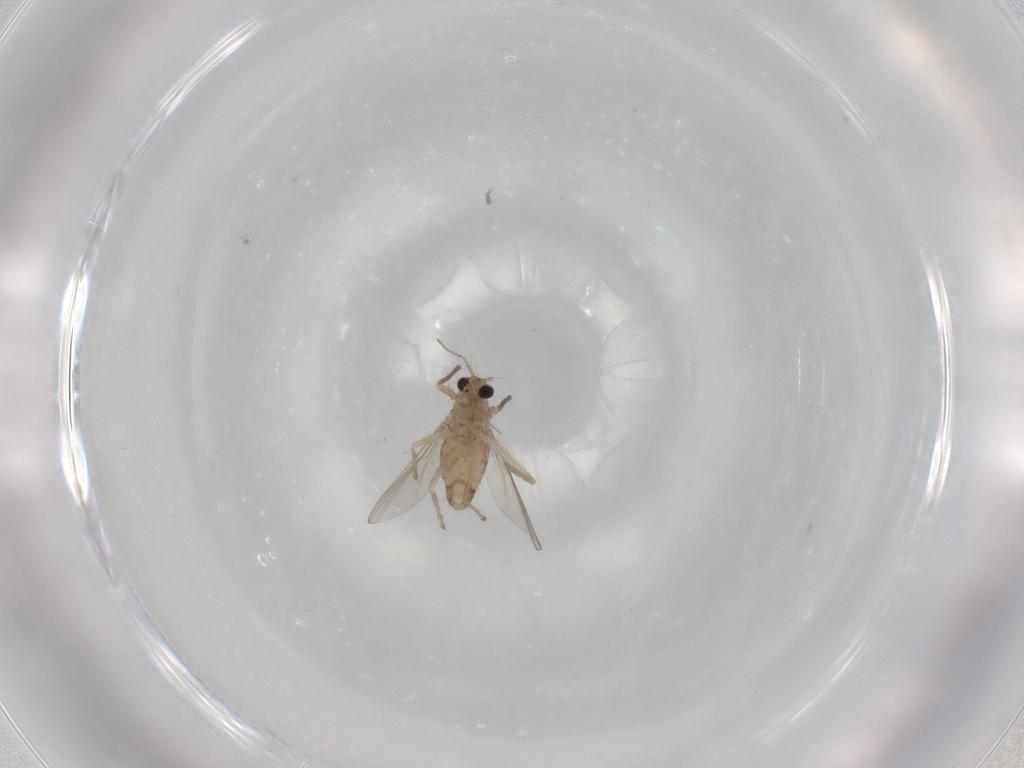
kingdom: Animalia
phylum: Arthropoda
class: Insecta
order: Diptera
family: Chironomidae
